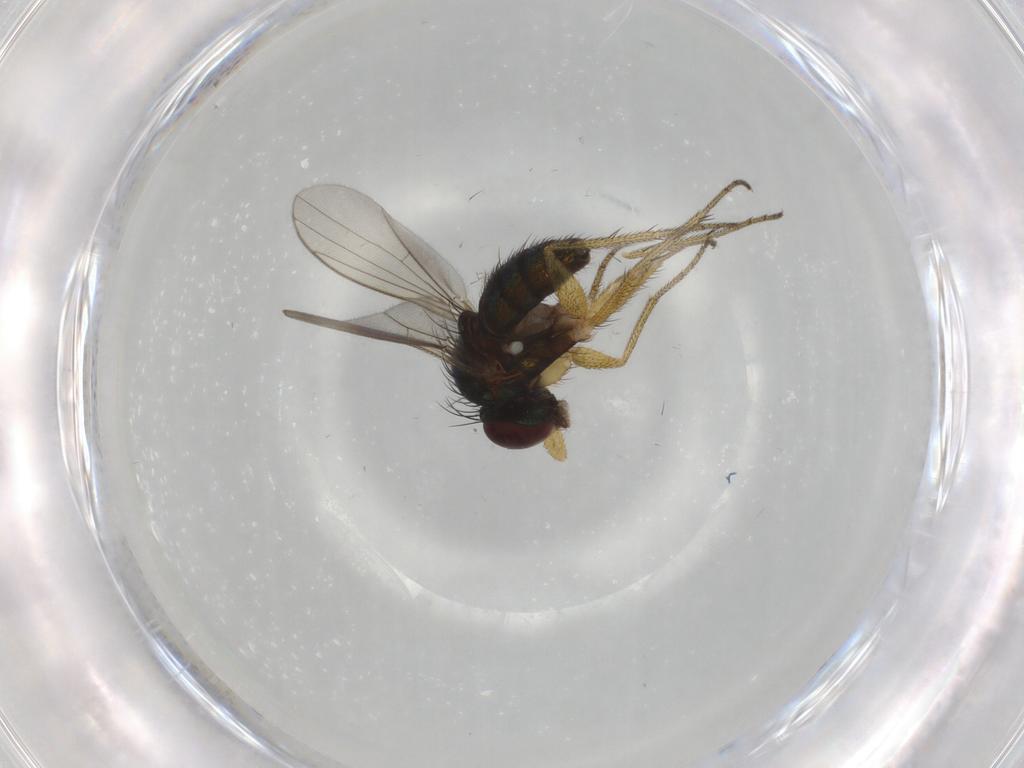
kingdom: Animalia
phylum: Arthropoda
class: Insecta
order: Diptera
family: Dolichopodidae
